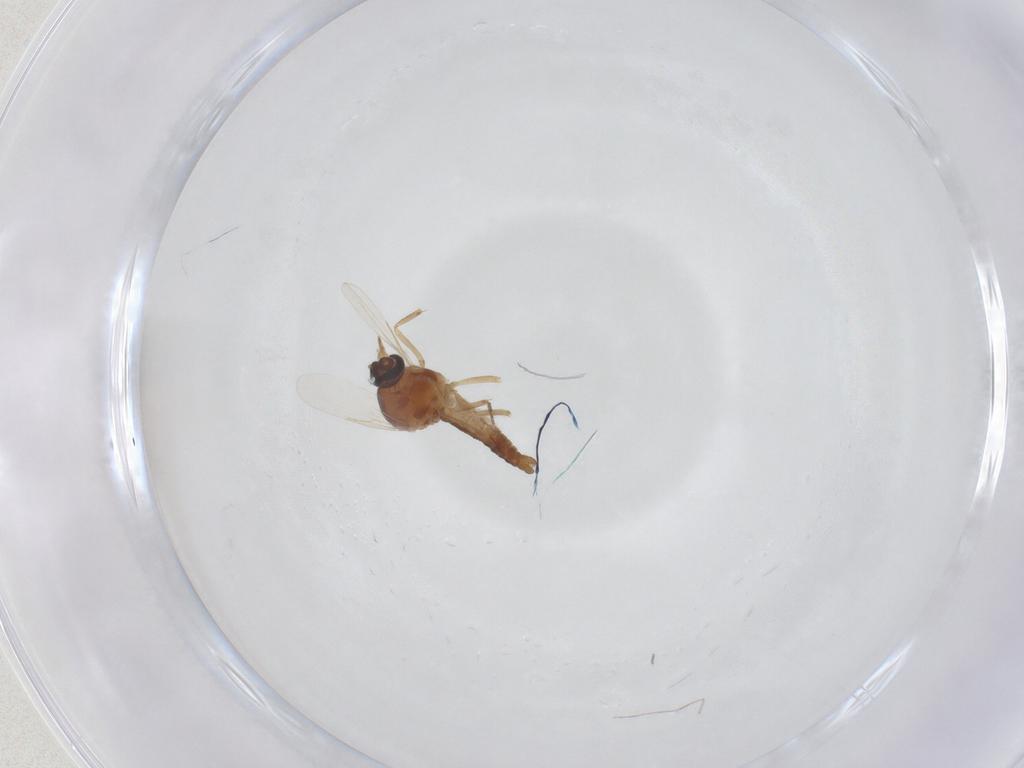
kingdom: Animalia
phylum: Arthropoda
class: Insecta
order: Diptera
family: Ceratopogonidae
